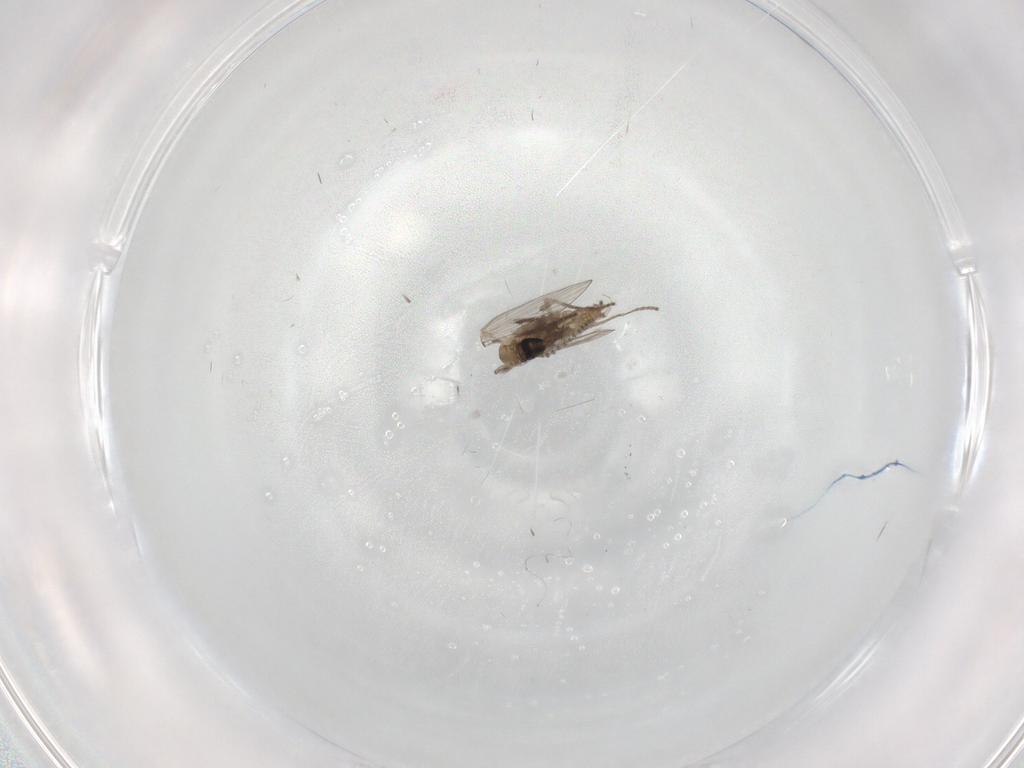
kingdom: Animalia
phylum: Arthropoda
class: Insecta
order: Diptera
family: Psychodidae
